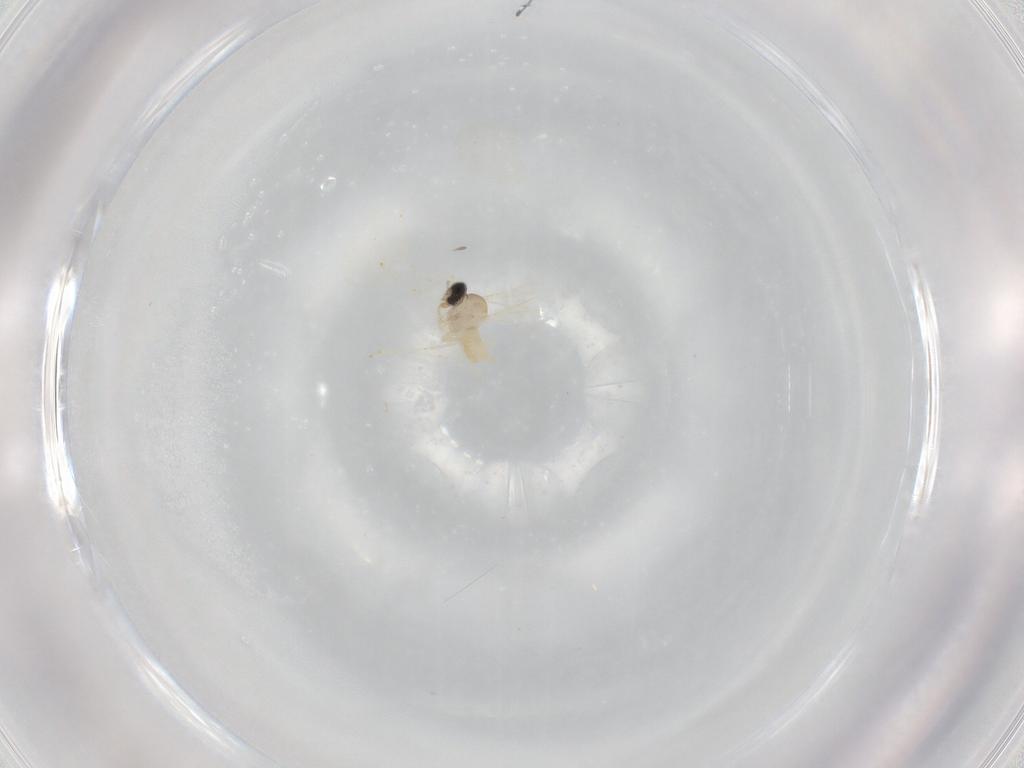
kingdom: Animalia
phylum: Arthropoda
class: Insecta
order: Diptera
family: Cecidomyiidae
